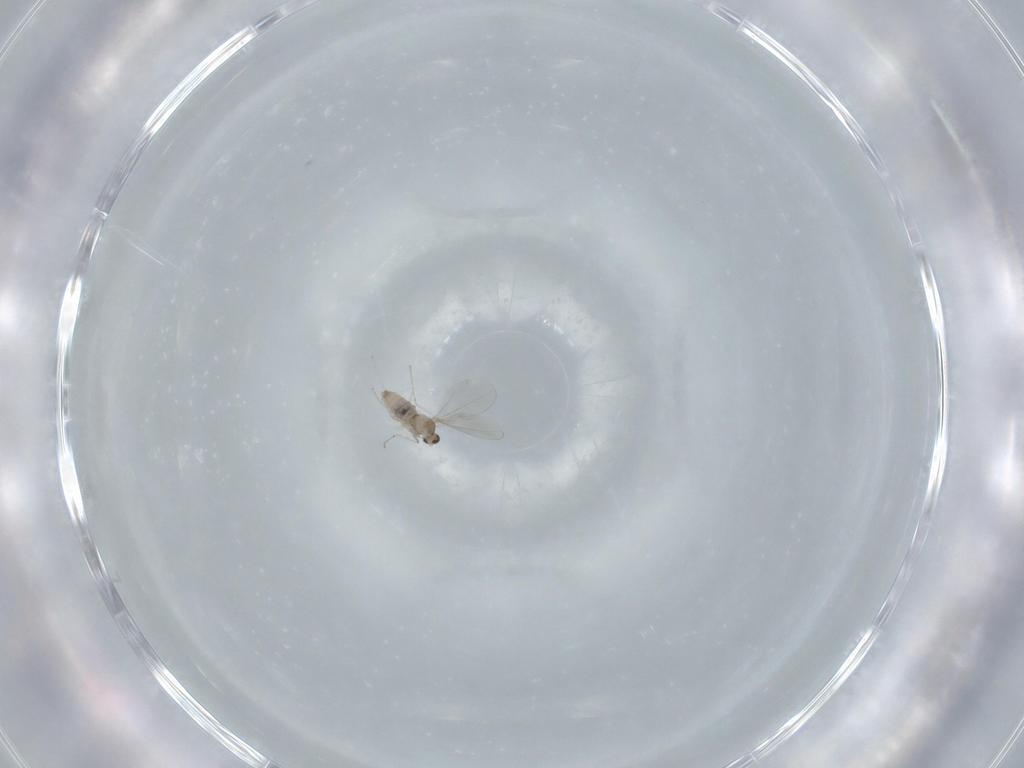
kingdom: Animalia
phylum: Arthropoda
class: Insecta
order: Diptera
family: Cecidomyiidae
